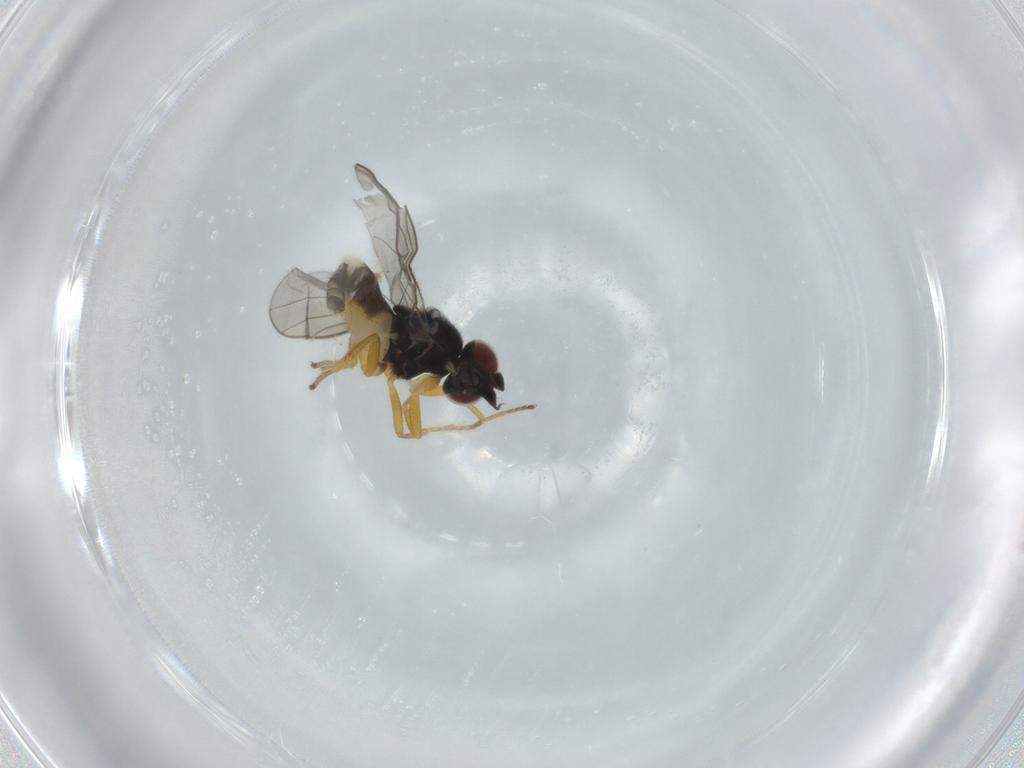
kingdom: Animalia
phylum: Arthropoda
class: Insecta
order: Diptera
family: Chloropidae
